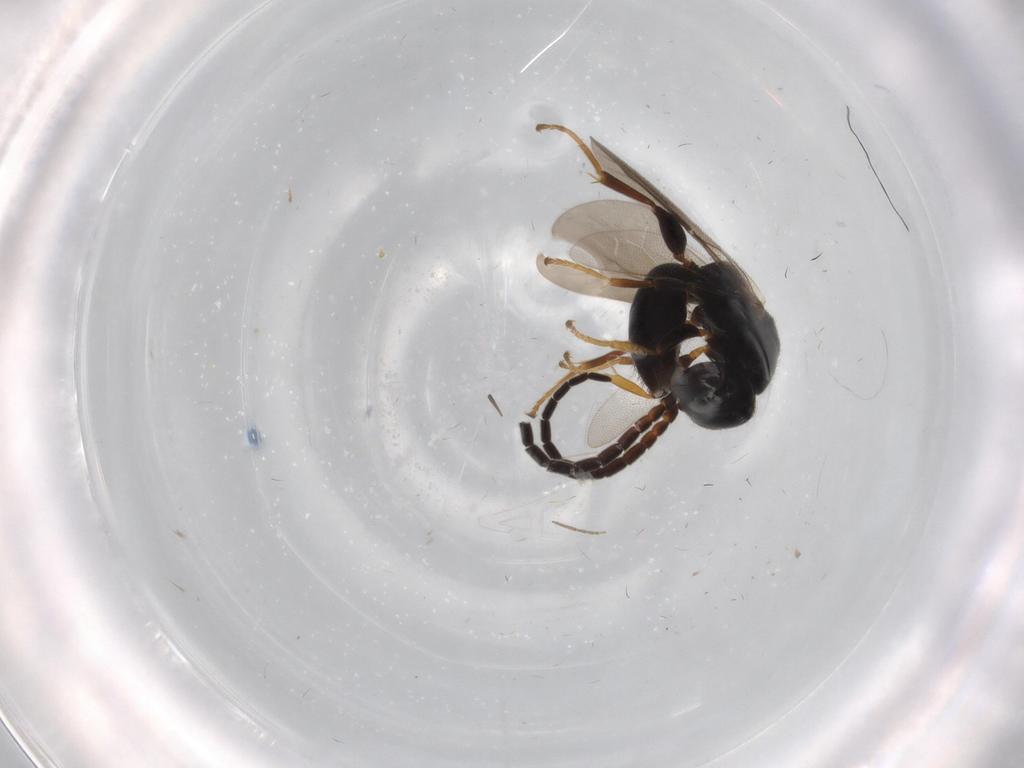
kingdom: Animalia
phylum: Arthropoda
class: Insecta
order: Hymenoptera
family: Bethylidae
